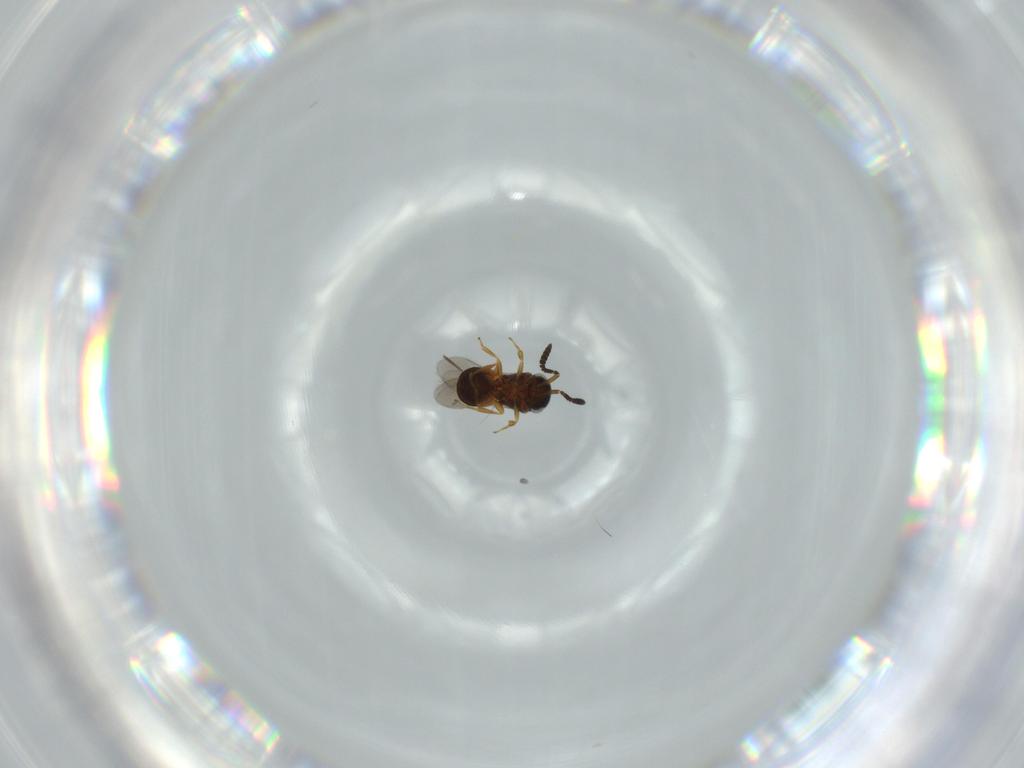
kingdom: Animalia
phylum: Arthropoda
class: Insecta
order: Hymenoptera
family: Scelionidae
